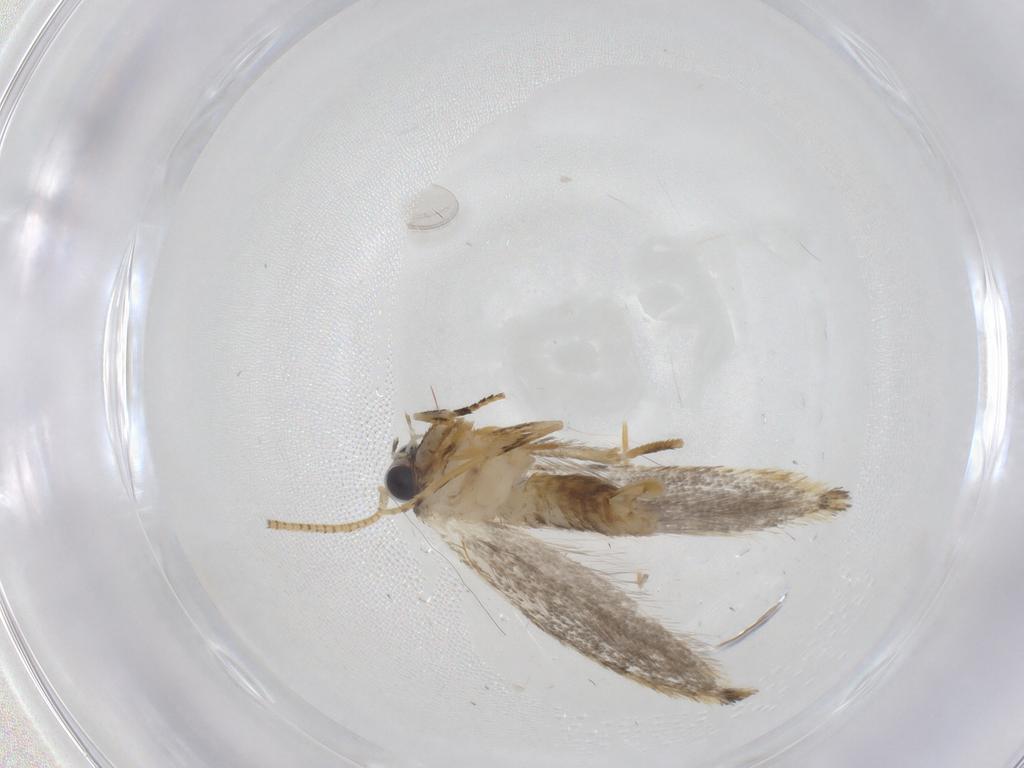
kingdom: Animalia
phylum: Arthropoda
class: Insecta
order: Lepidoptera
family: Tineidae
